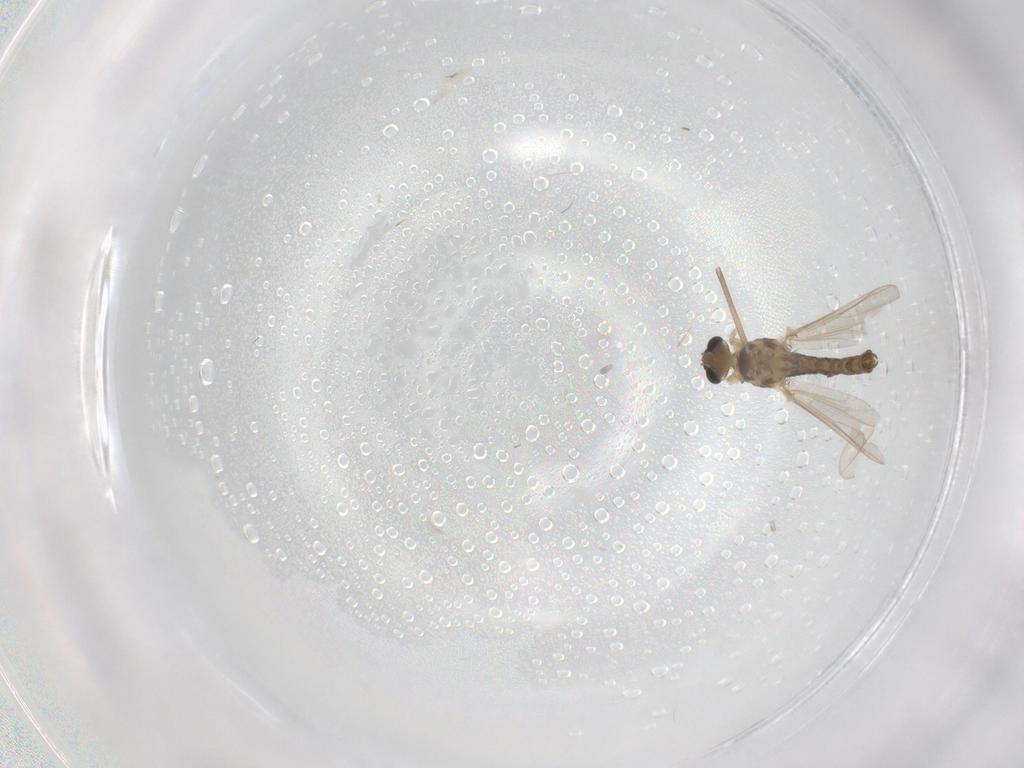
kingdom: Animalia
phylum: Arthropoda
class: Insecta
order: Diptera
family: Chironomidae
